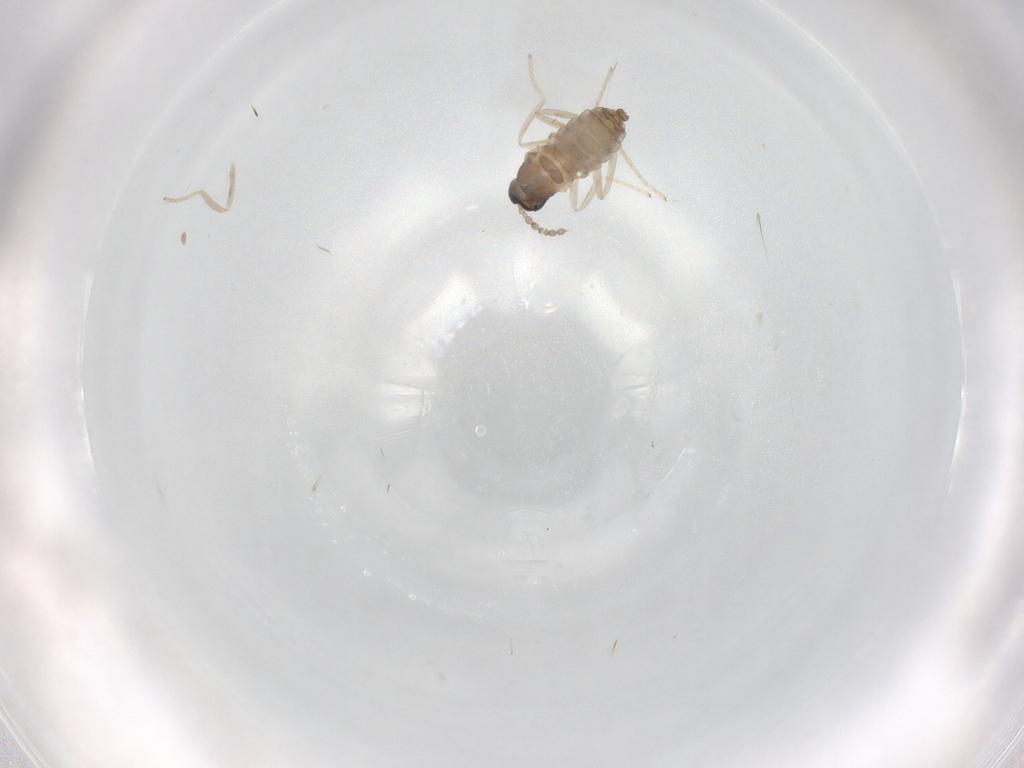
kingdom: Animalia
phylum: Arthropoda
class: Insecta
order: Diptera
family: Cecidomyiidae
